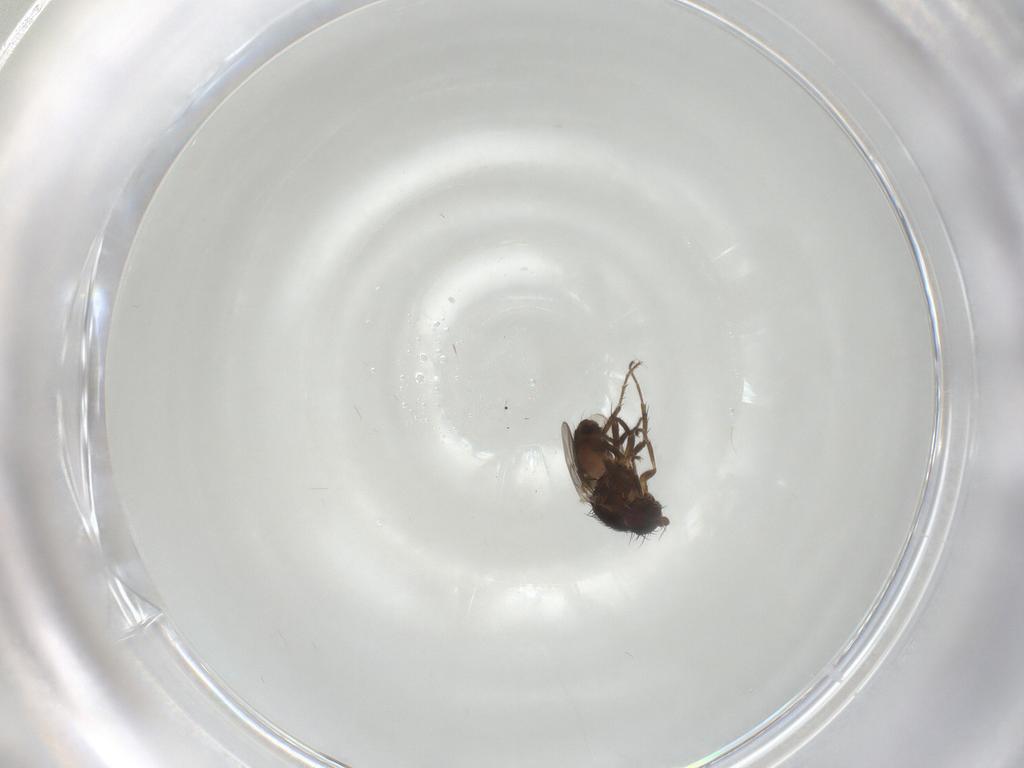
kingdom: Animalia
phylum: Arthropoda
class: Insecta
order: Diptera
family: Sphaeroceridae
